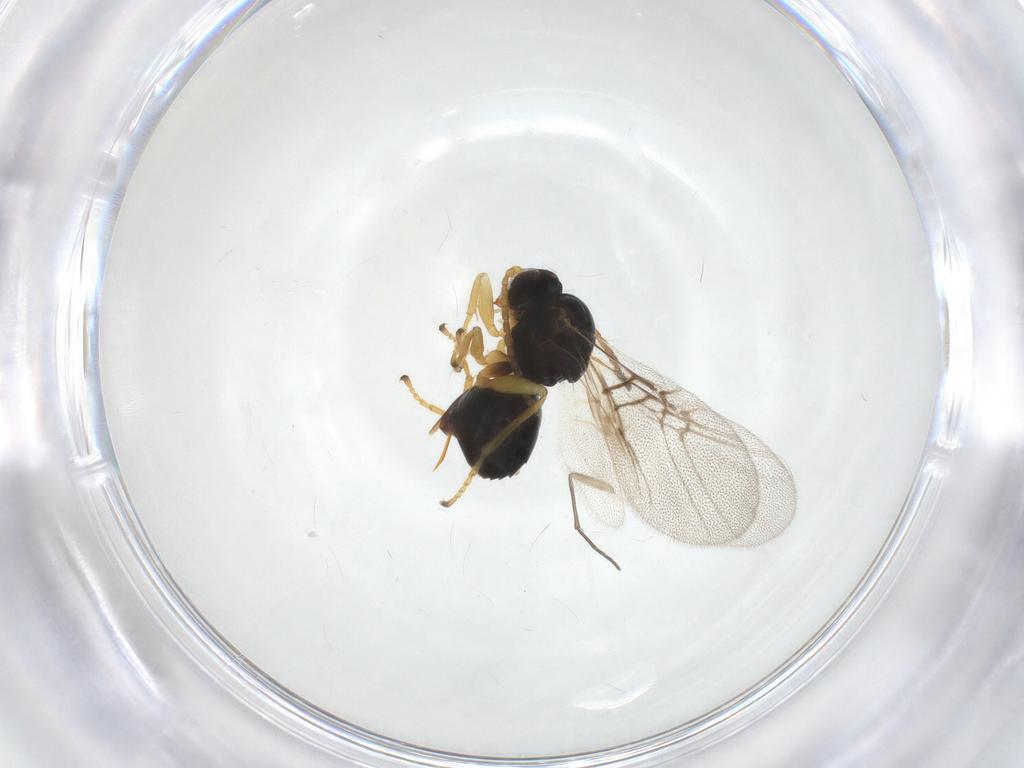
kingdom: Animalia
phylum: Arthropoda
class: Insecta
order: Hymenoptera
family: Cynipidae
